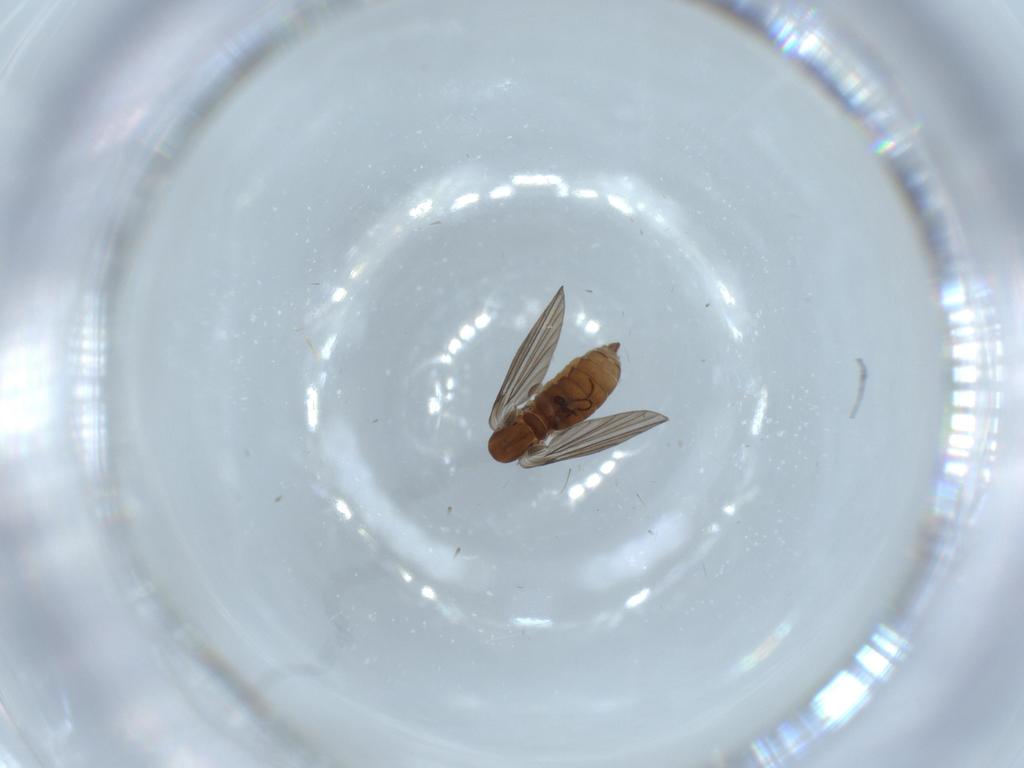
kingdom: Animalia
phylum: Arthropoda
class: Insecta
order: Diptera
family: Psychodidae
